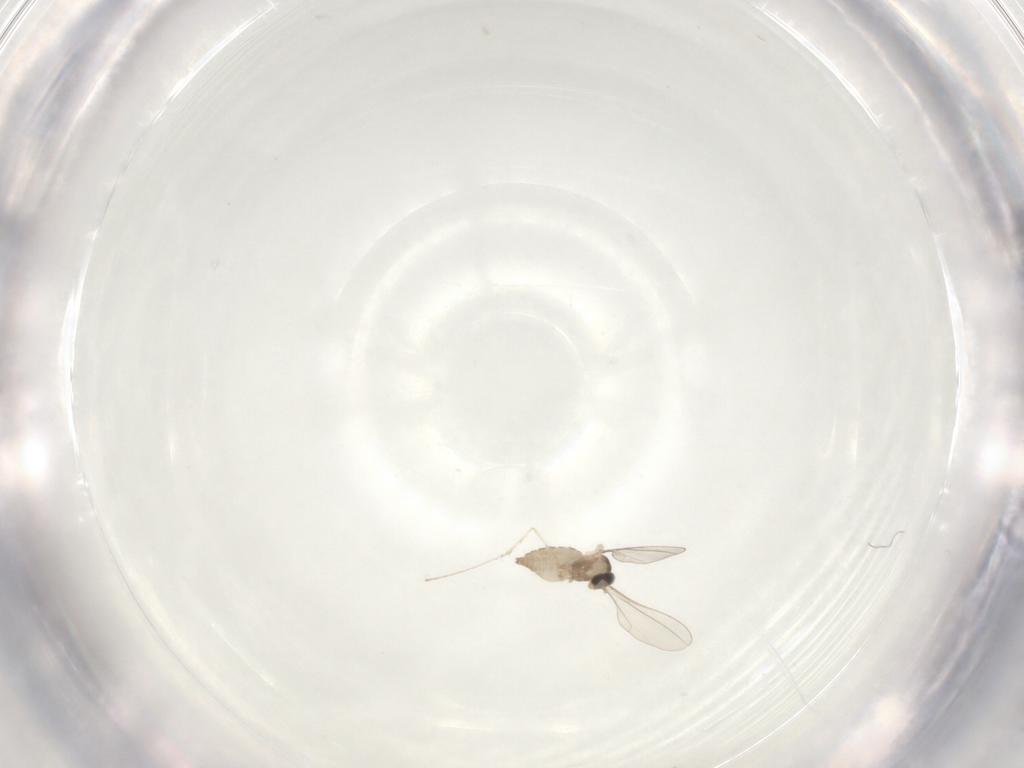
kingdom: Animalia
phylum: Arthropoda
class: Insecta
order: Diptera
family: Cecidomyiidae
